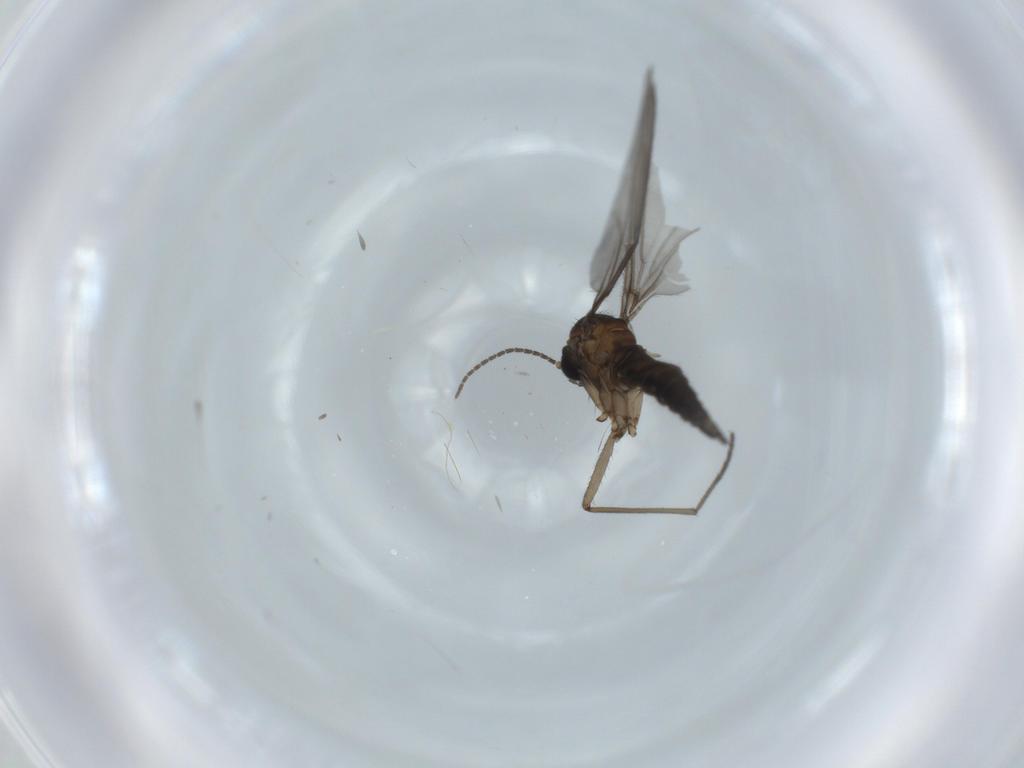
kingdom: Animalia
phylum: Arthropoda
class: Insecta
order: Diptera
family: Sciaridae
